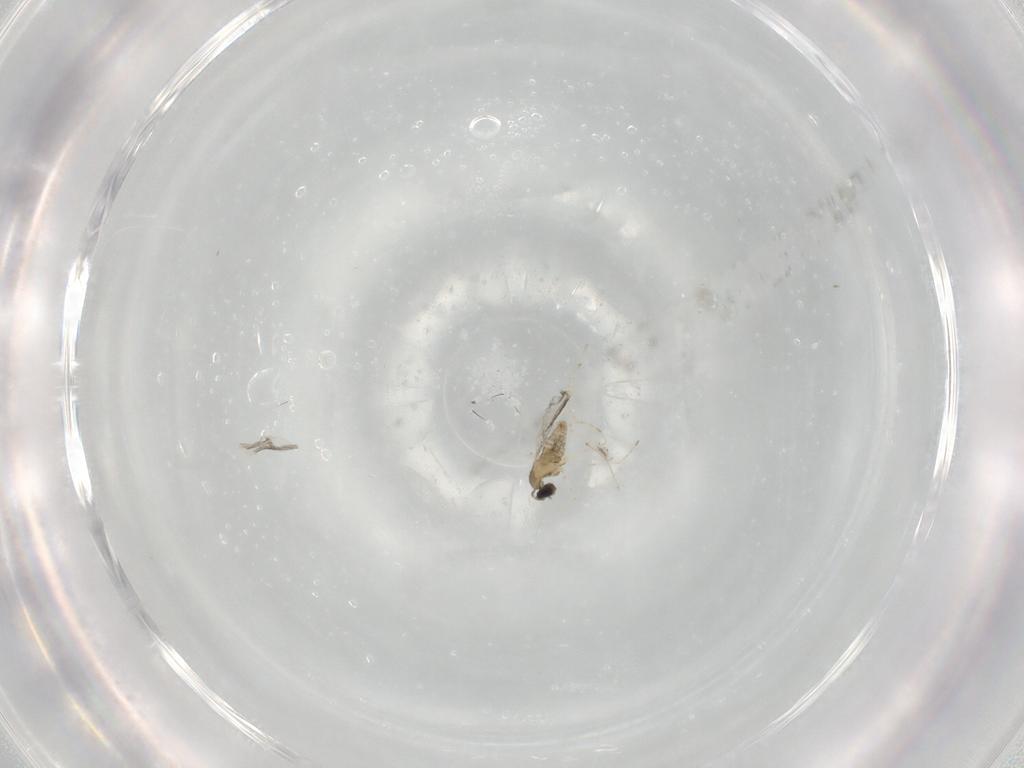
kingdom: Animalia
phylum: Arthropoda
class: Insecta
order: Diptera
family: Cecidomyiidae
